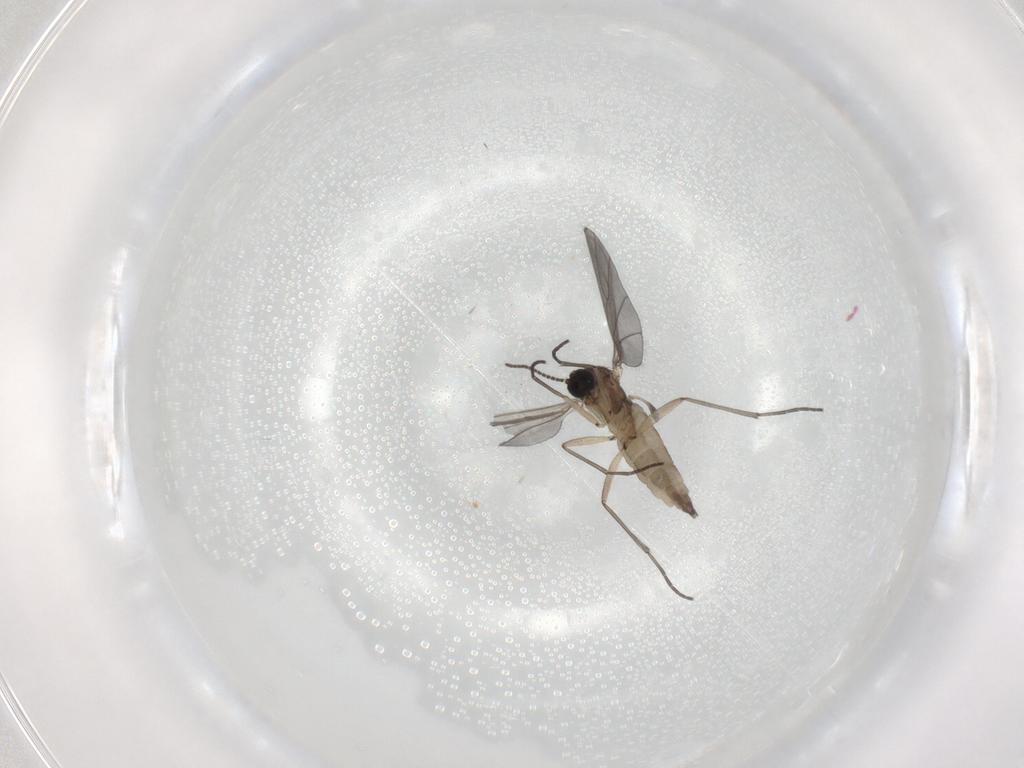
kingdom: Animalia
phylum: Arthropoda
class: Insecta
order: Diptera
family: Sciaridae
